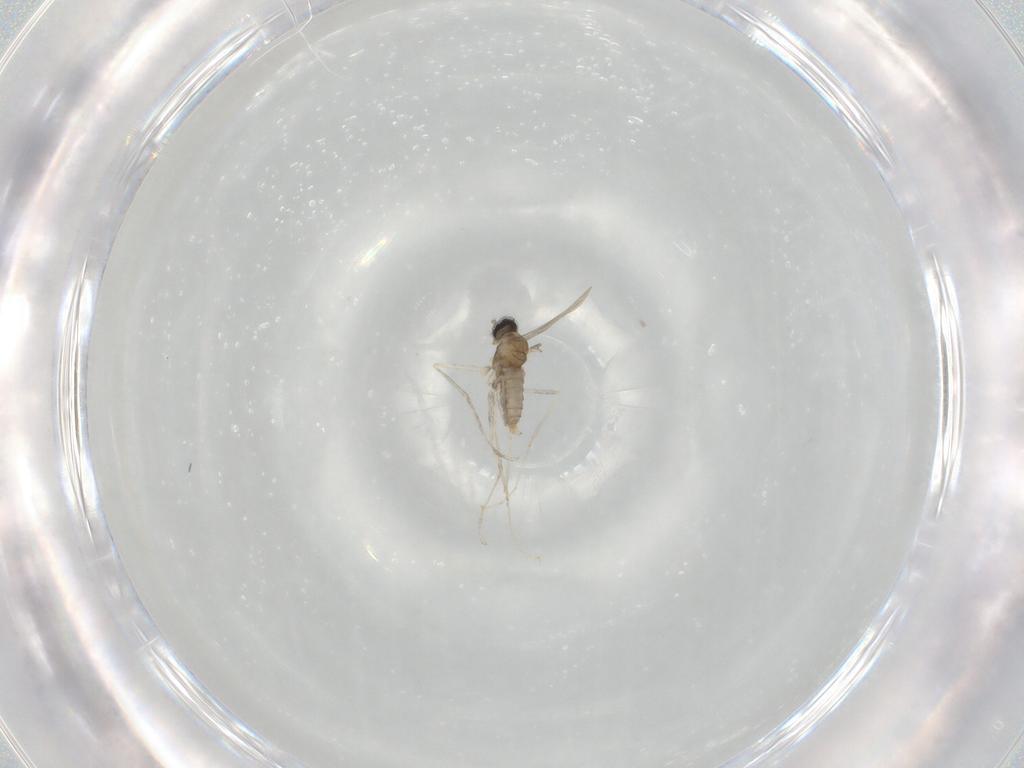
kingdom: Animalia
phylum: Arthropoda
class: Insecta
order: Diptera
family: Cecidomyiidae
